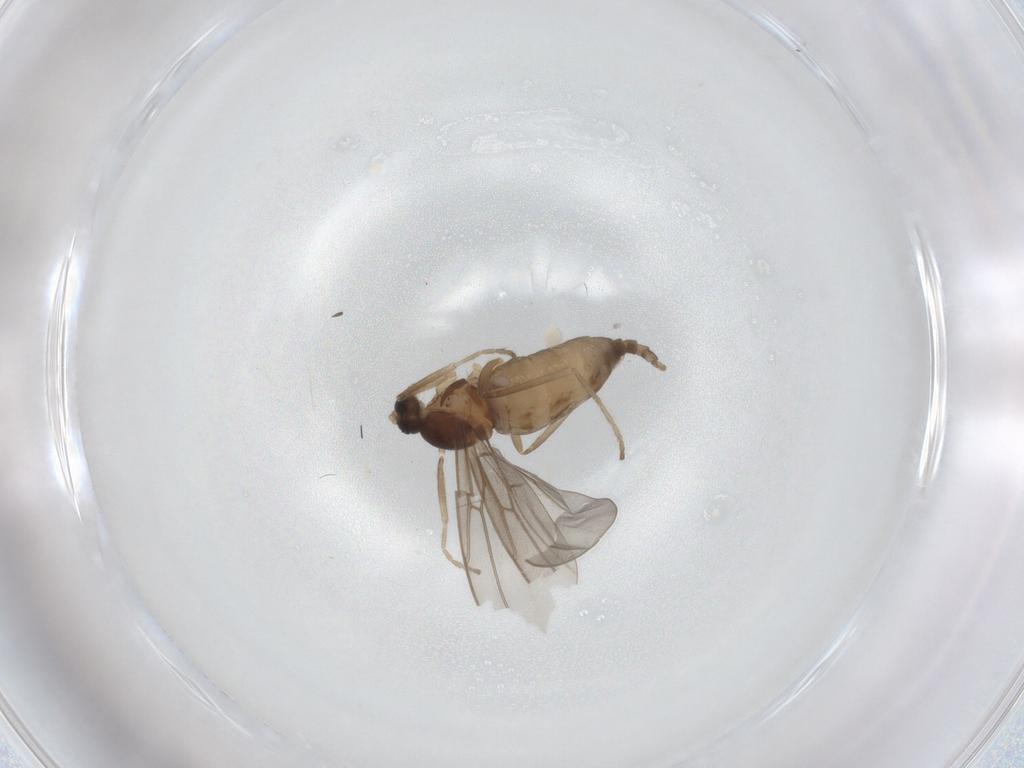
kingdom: Animalia
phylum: Arthropoda
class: Insecta
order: Diptera
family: Cecidomyiidae
